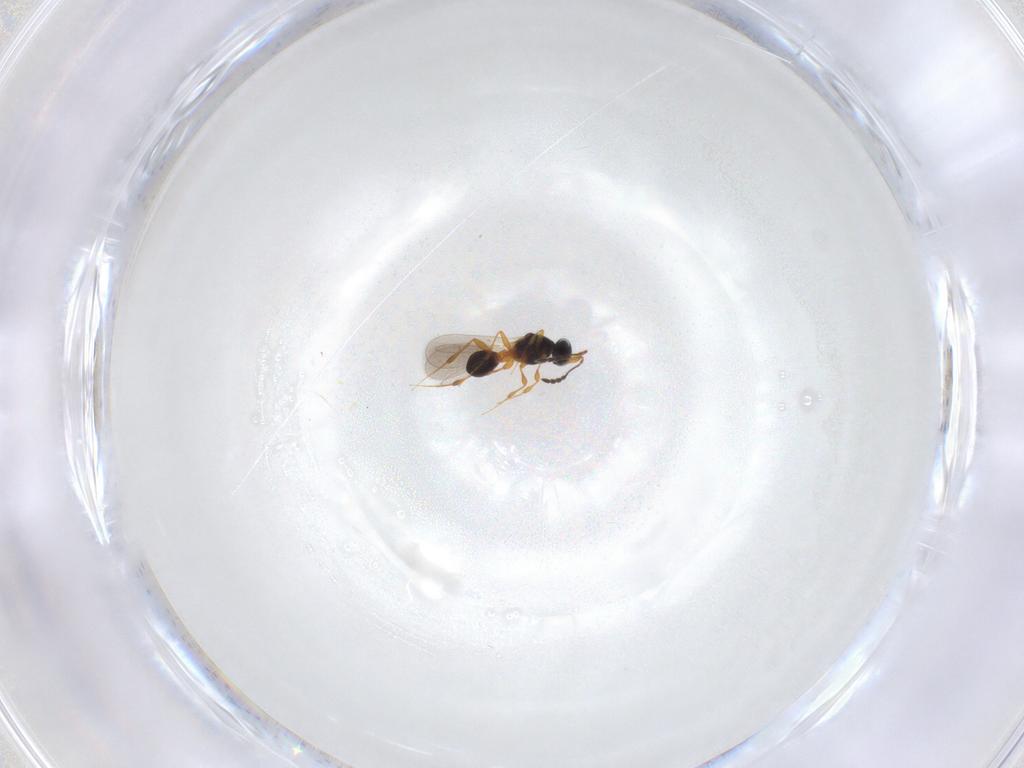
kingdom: Animalia
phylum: Arthropoda
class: Insecta
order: Hymenoptera
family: Platygastridae
